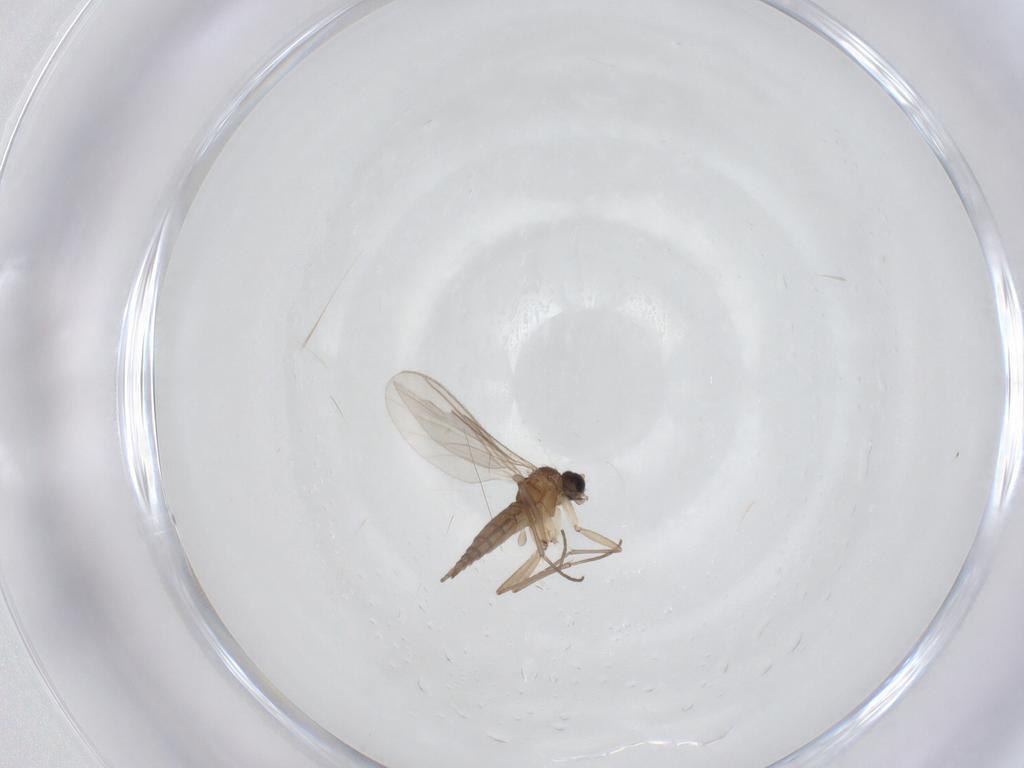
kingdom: Animalia
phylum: Arthropoda
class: Insecta
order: Diptera
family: Sciaridae
